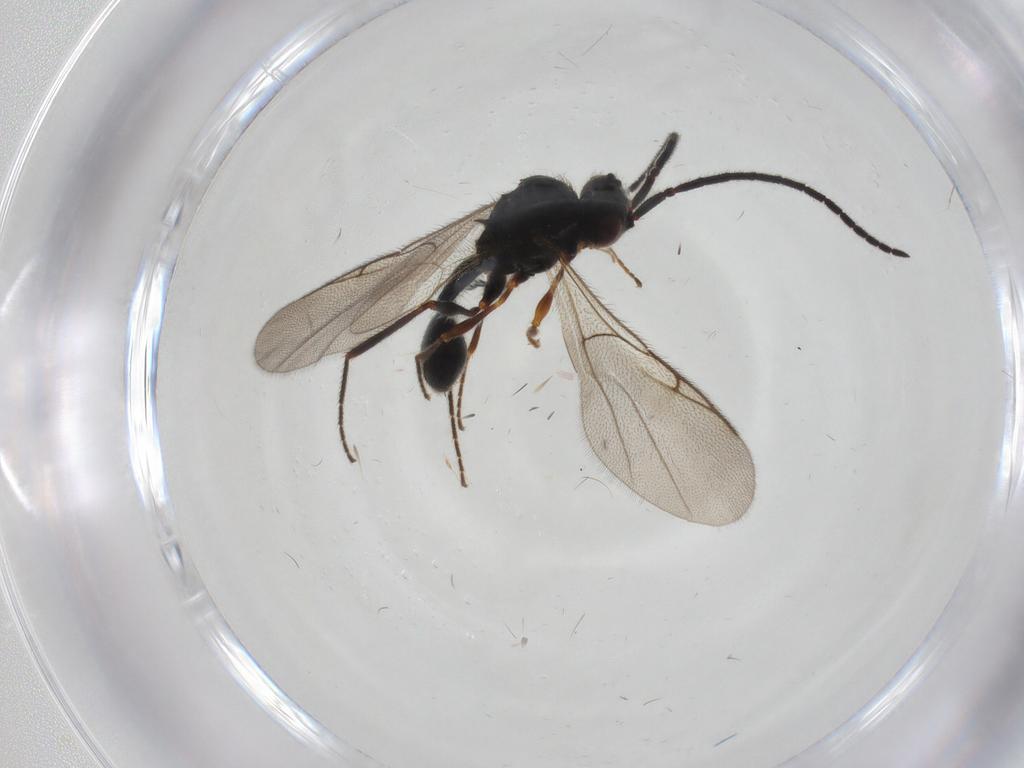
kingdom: Animalia
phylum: Arthropoda
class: Insecta
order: Hymenoptera
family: Diapriidae
